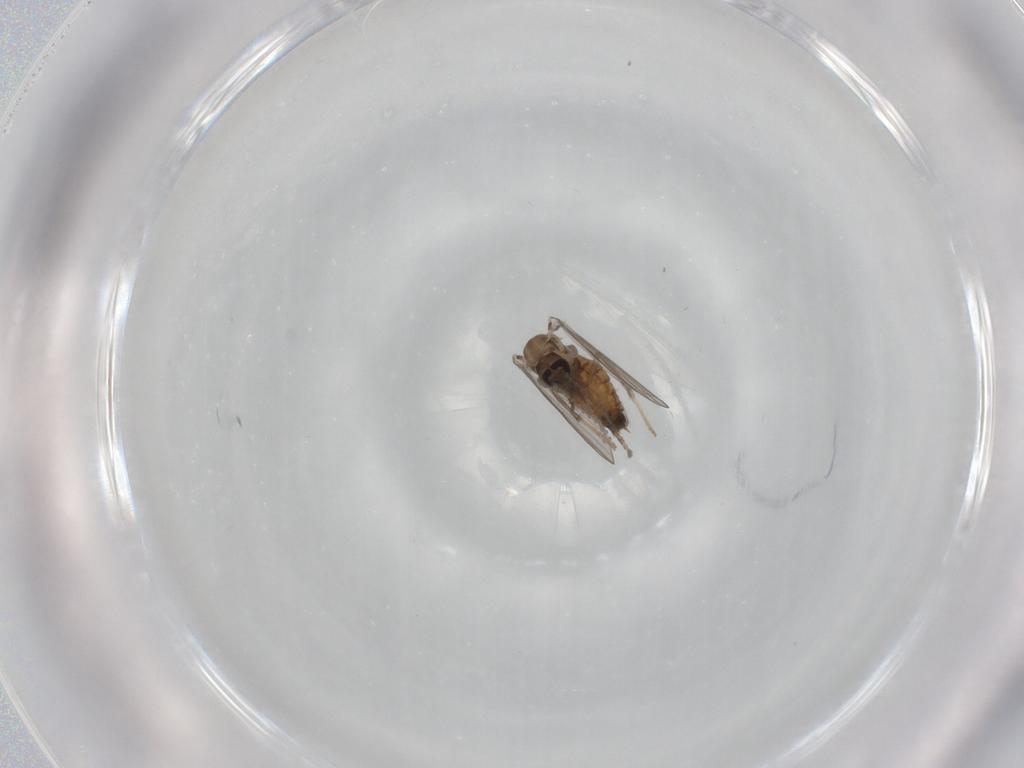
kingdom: Animalia
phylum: Arthropoda
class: Insecta
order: Diptera
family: Psychodidae
